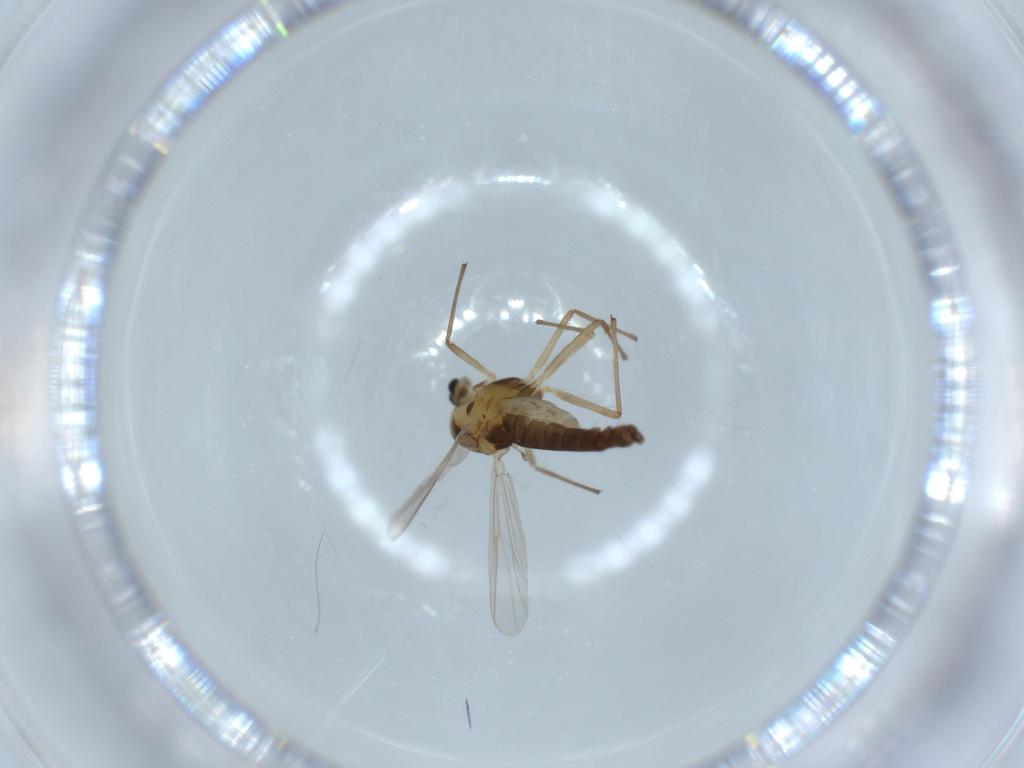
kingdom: Animalia
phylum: Arthropoda
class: Insecta
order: Diptera
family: Chironomidae
